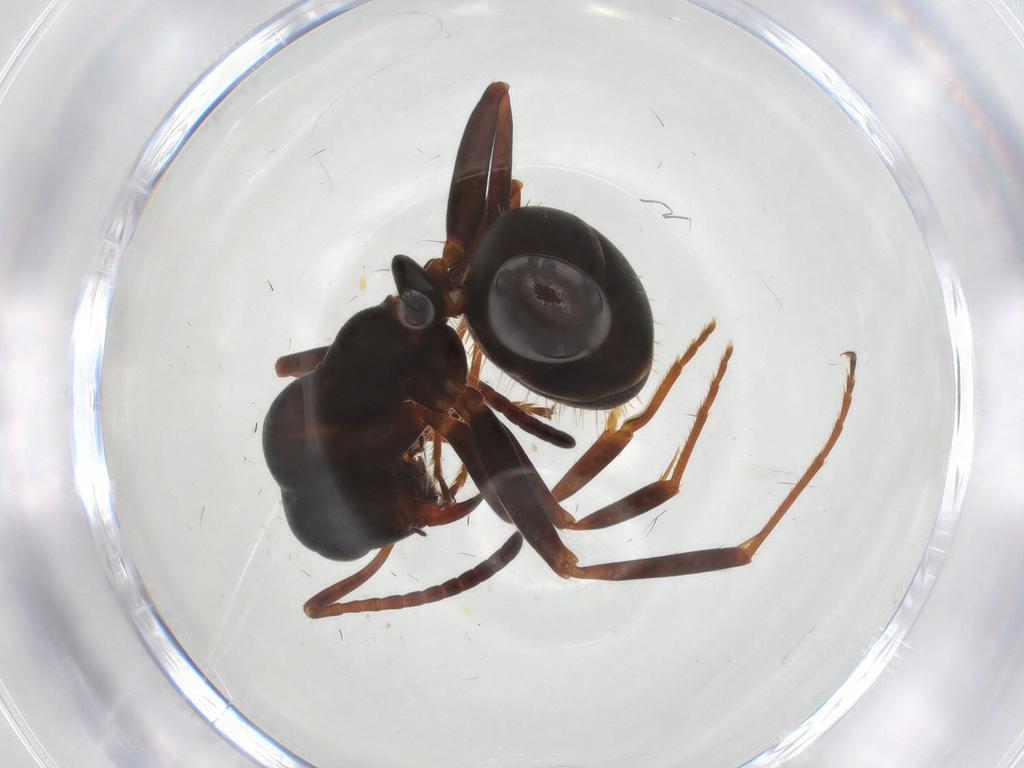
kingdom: Animalia
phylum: Arthropoda
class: Insecta
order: Hymenoptera
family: Formicidae
